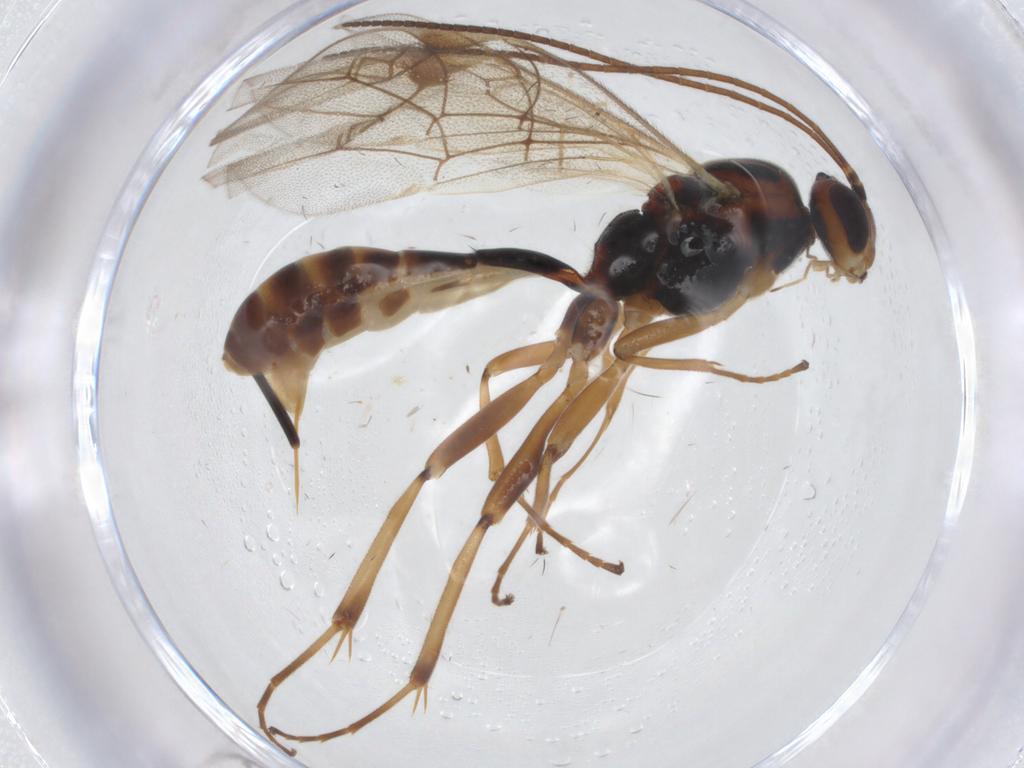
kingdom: Animalia
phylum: Arthropoda
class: Insecta
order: Hymenoptera
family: Ichneumonidae
